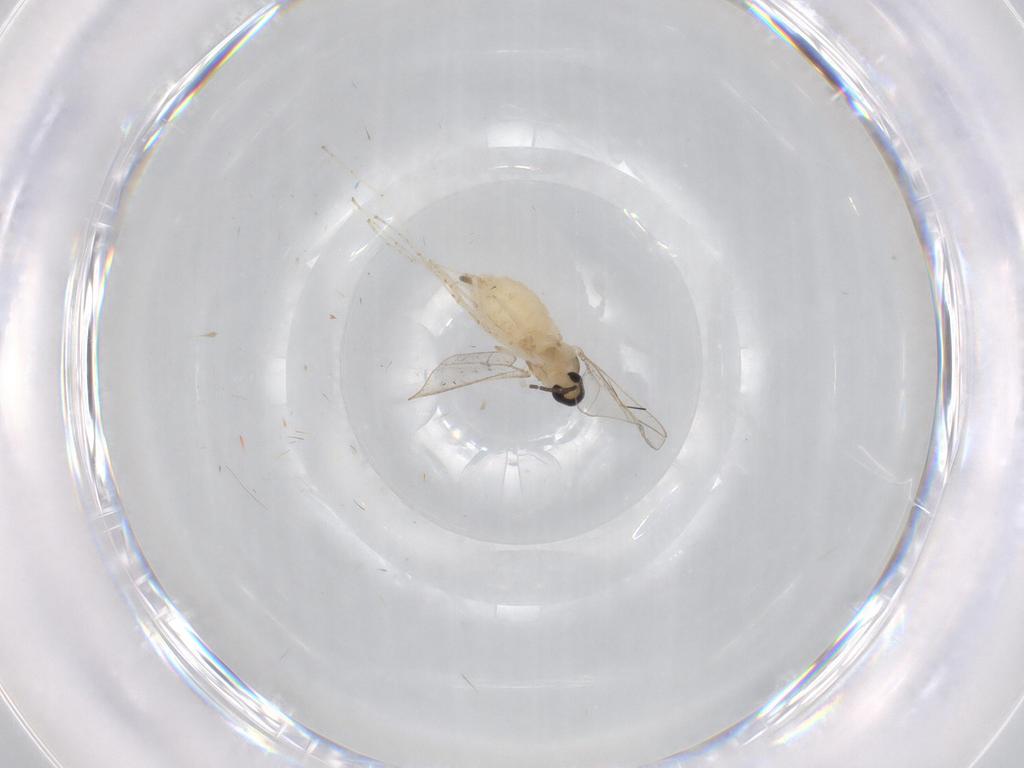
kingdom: Animalia
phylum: Arthropoda
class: Insecta
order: Diptera
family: Cecidomyiidae
